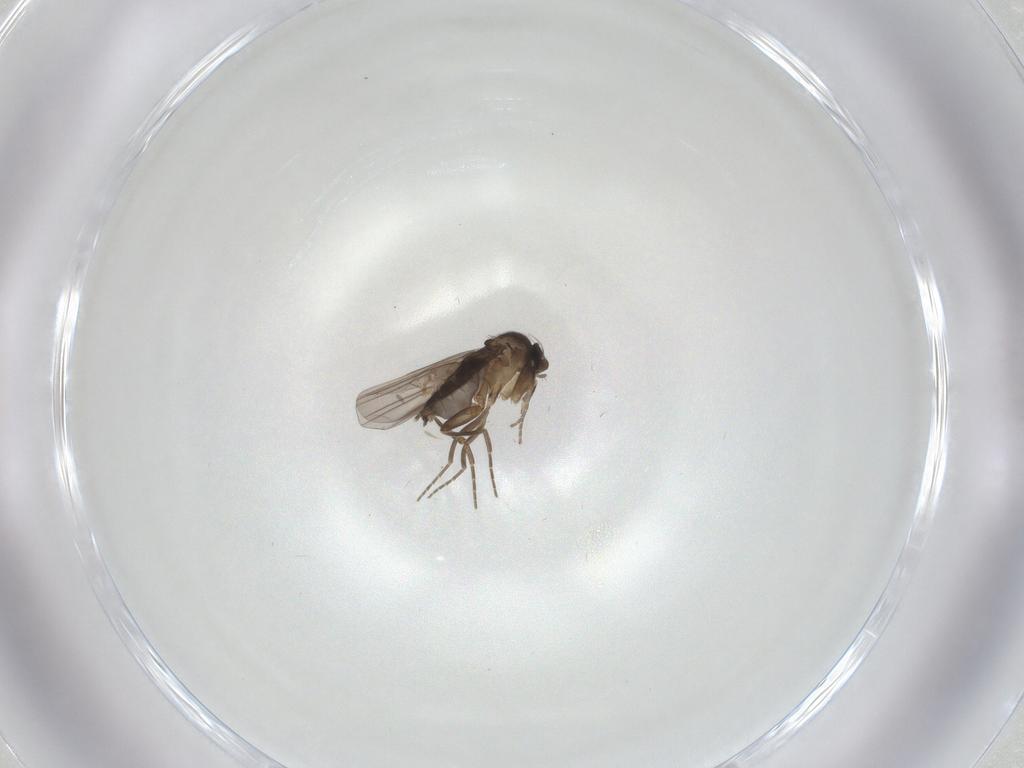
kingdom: Animalia
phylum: Arthropoda
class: Insecta
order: Diptera
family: Phoridae
